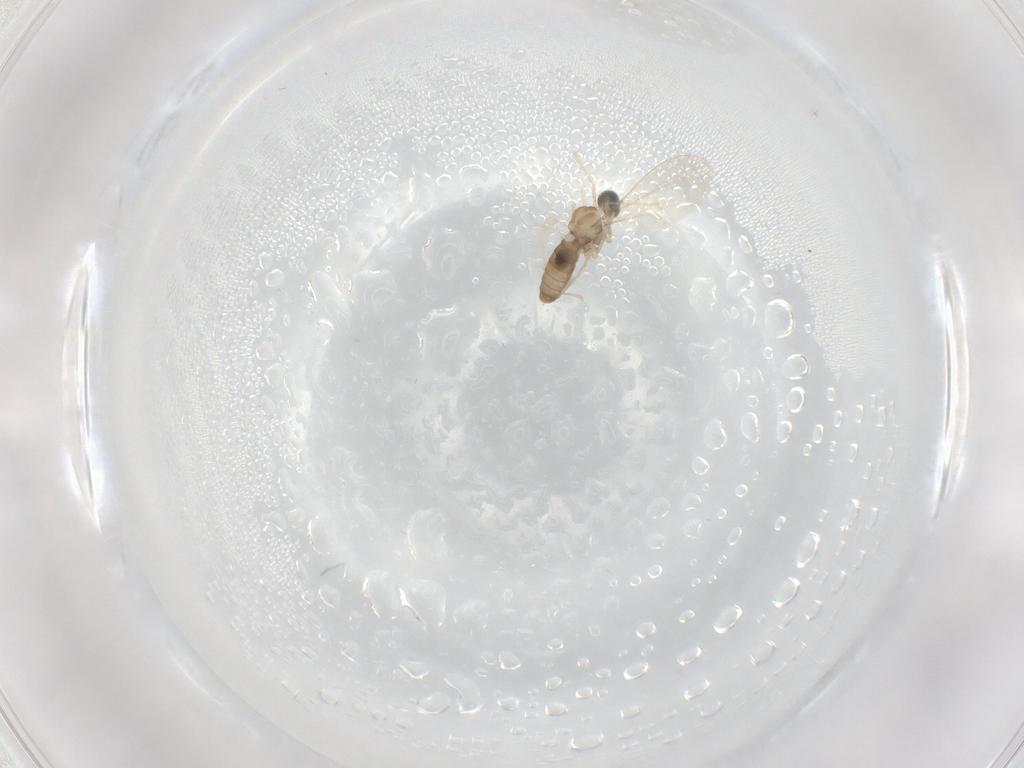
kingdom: Animalia
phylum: Arthropoda
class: Insecta
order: Diptera
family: Cecidomyiidae
